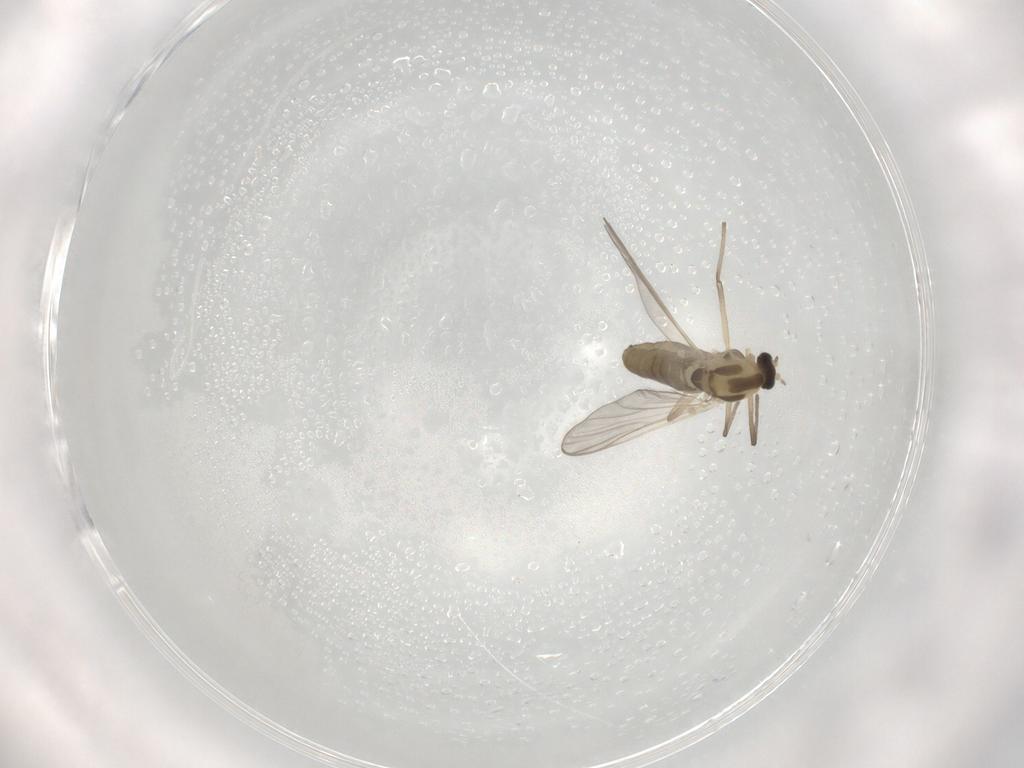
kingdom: Animalia
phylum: Arthropoda
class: Insecta
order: Diptera
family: Chironomidae
